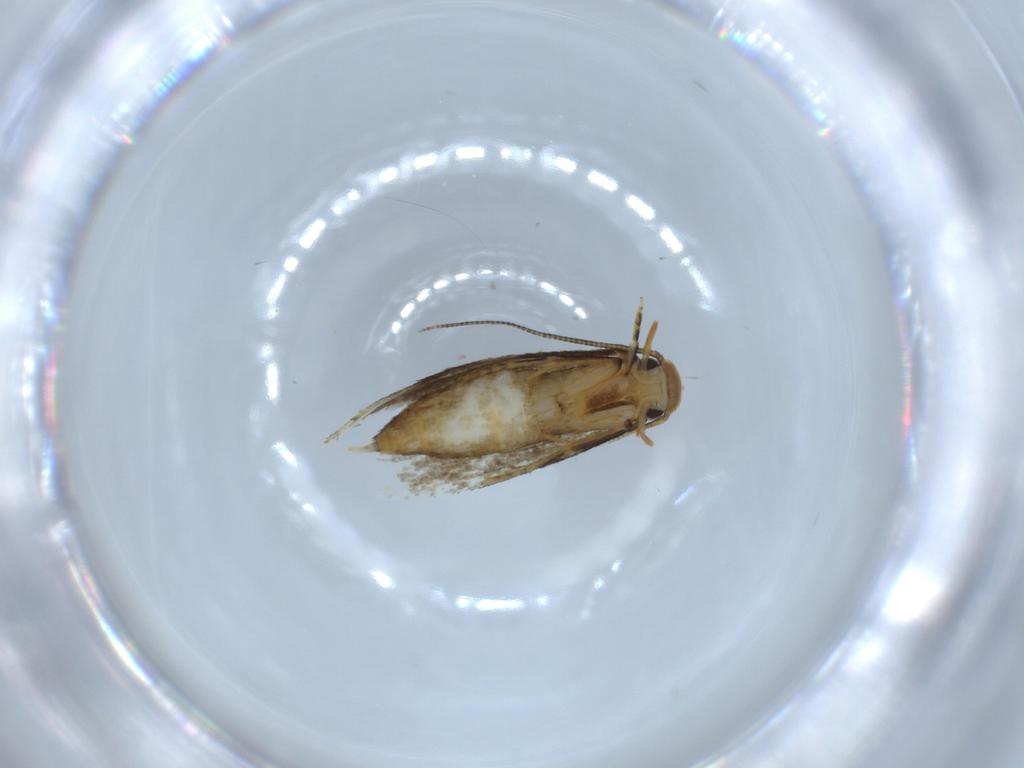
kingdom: Animalia
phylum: Arthropoda
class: Insecta
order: Lepidoptera
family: Tineidae
